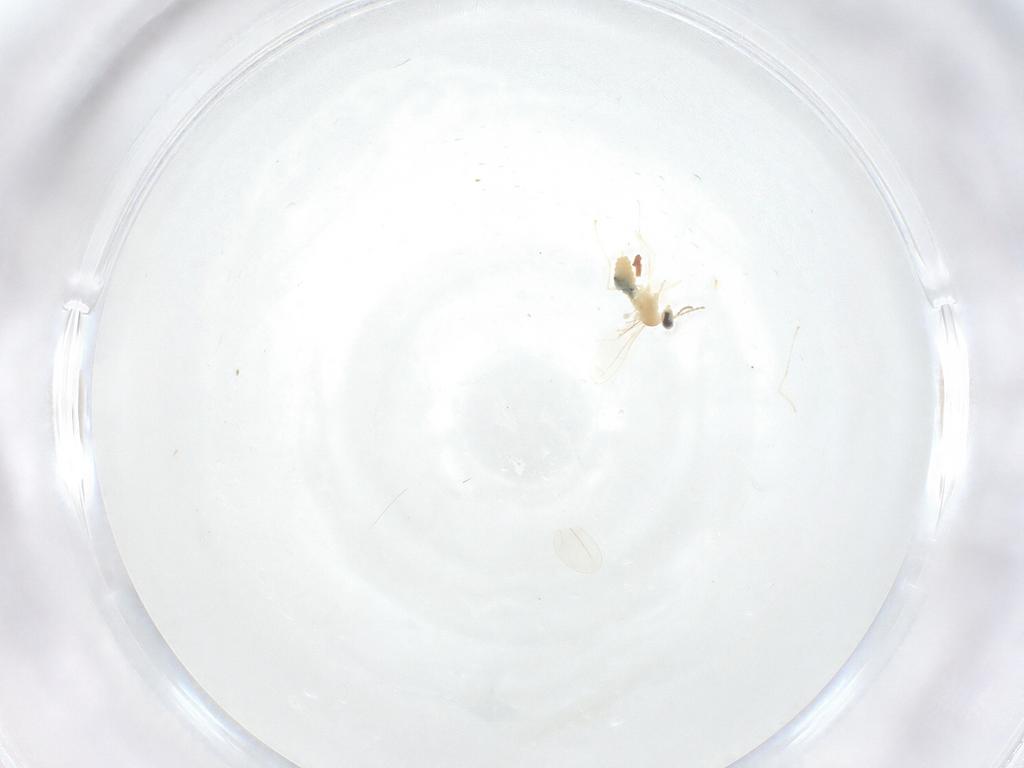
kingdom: Animalia
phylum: Arthropoda
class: Insecta
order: Diptera
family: Cecidomyiidae
